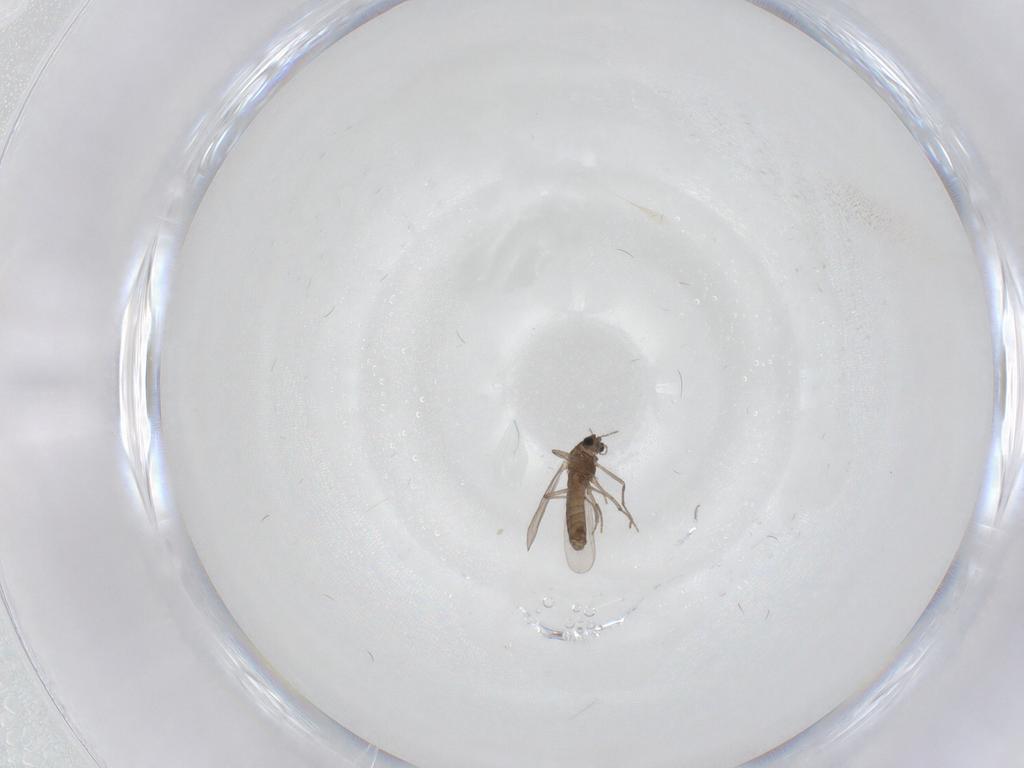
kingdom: Animalia
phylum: Arthropoda
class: Insecta
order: Diptera
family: Chironomidae
